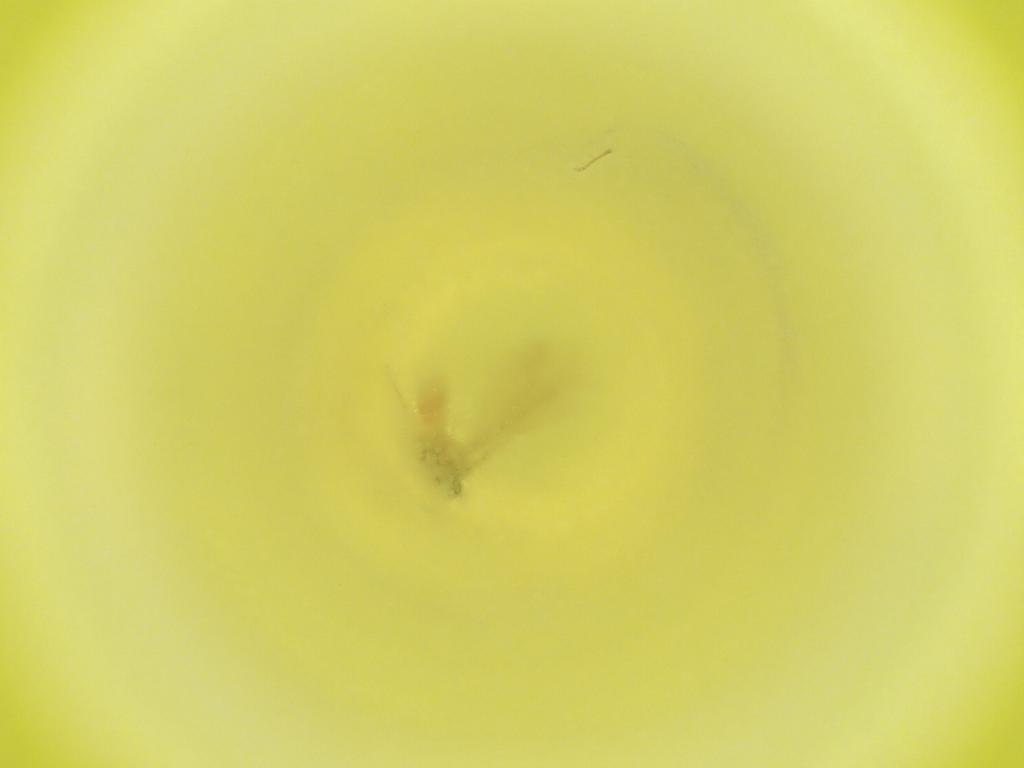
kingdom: Animalia
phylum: Arthropoda
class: Insecta
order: Diptera
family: Cecidomyiidae
